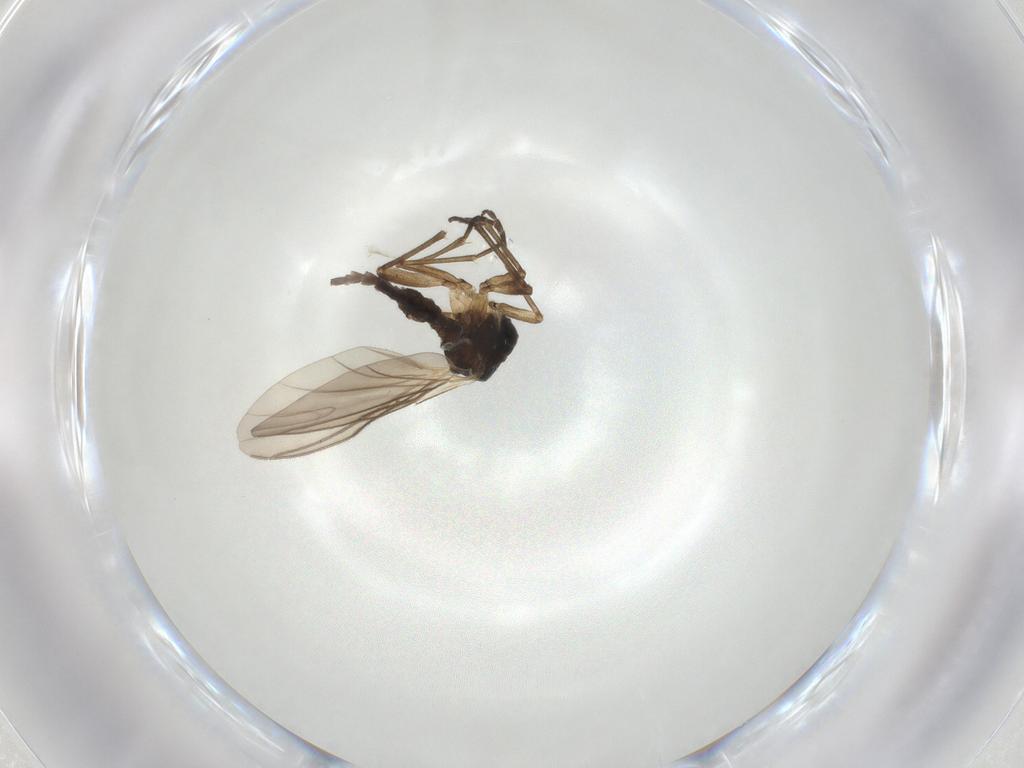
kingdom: Animalia
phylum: Arthropoda
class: Insecta
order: Diptera
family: Sciaridae
